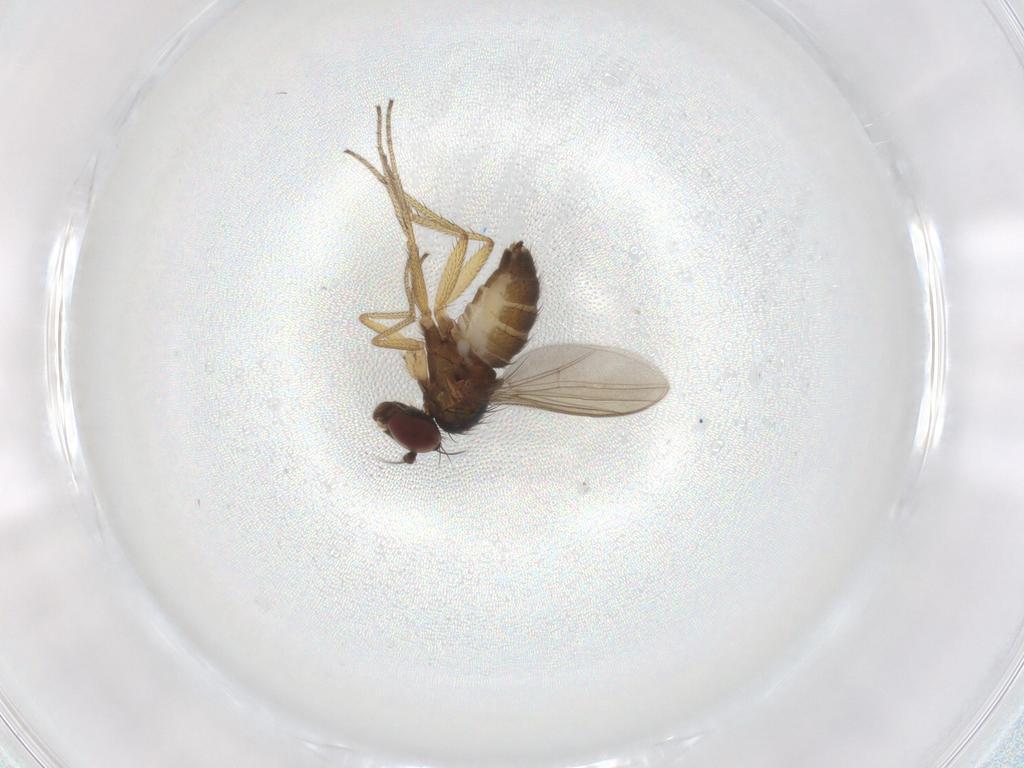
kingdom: Animalia
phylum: Arthropoda
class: Insecta
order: Diptera
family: Dolichopodidae
